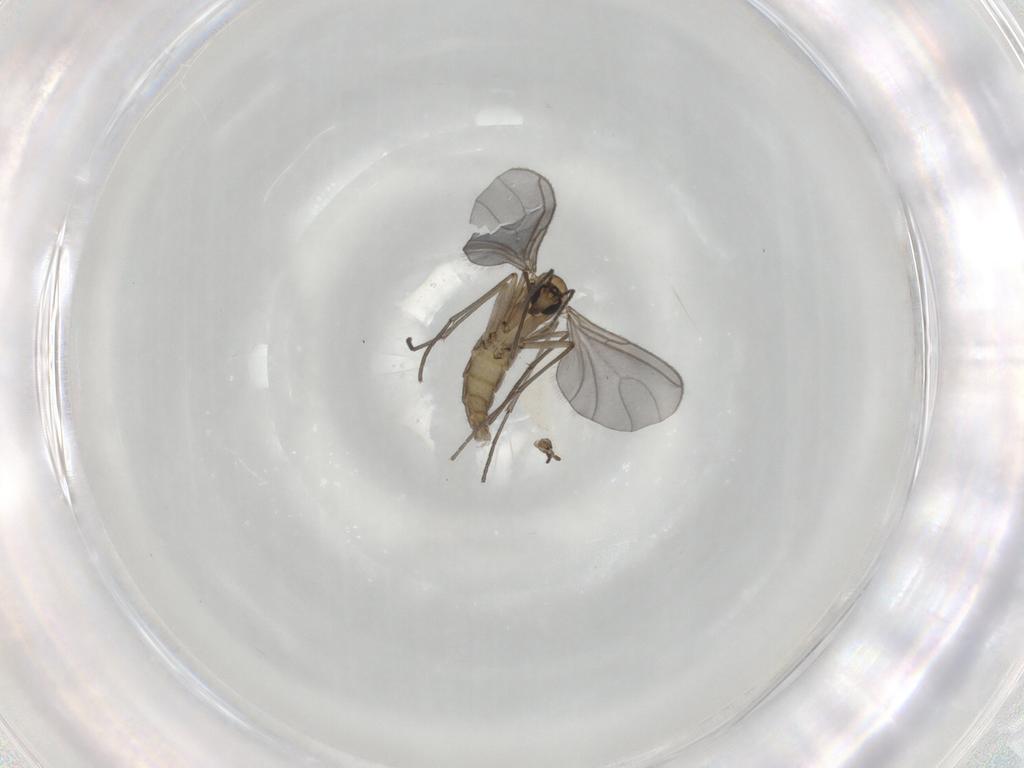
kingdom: Animalia
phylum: Arthropoda
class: Insecta
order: Diptera
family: Sciaridae
